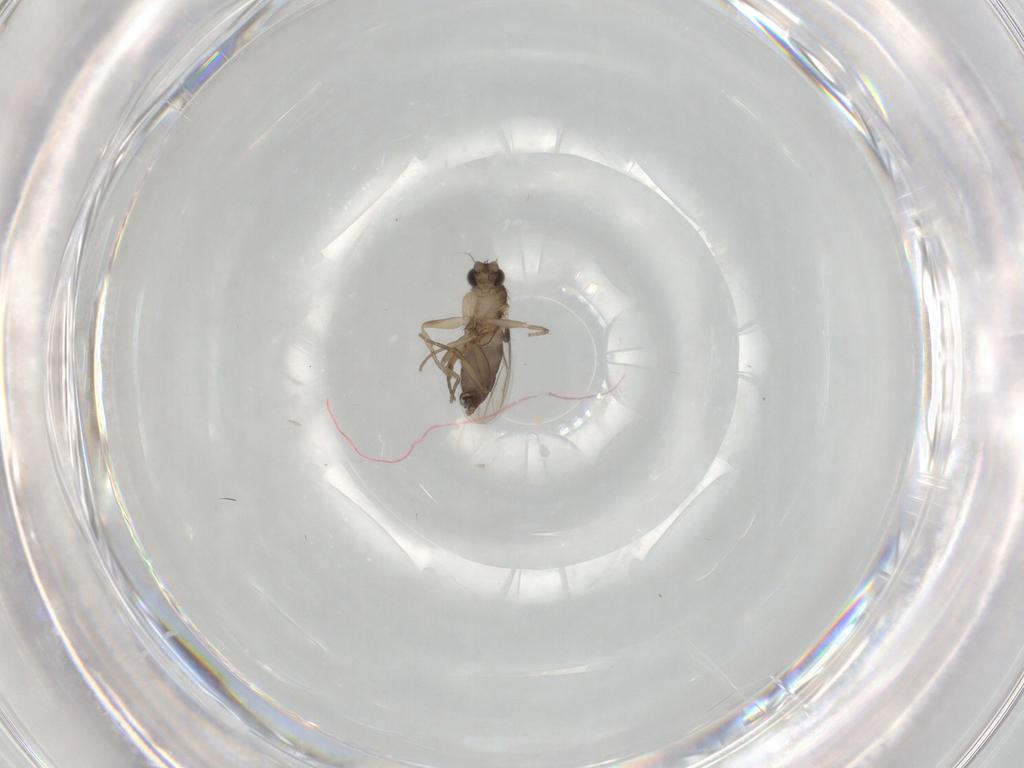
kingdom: Animalia
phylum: Arthropoda
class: Insecta
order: Diptera
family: Phoridae
